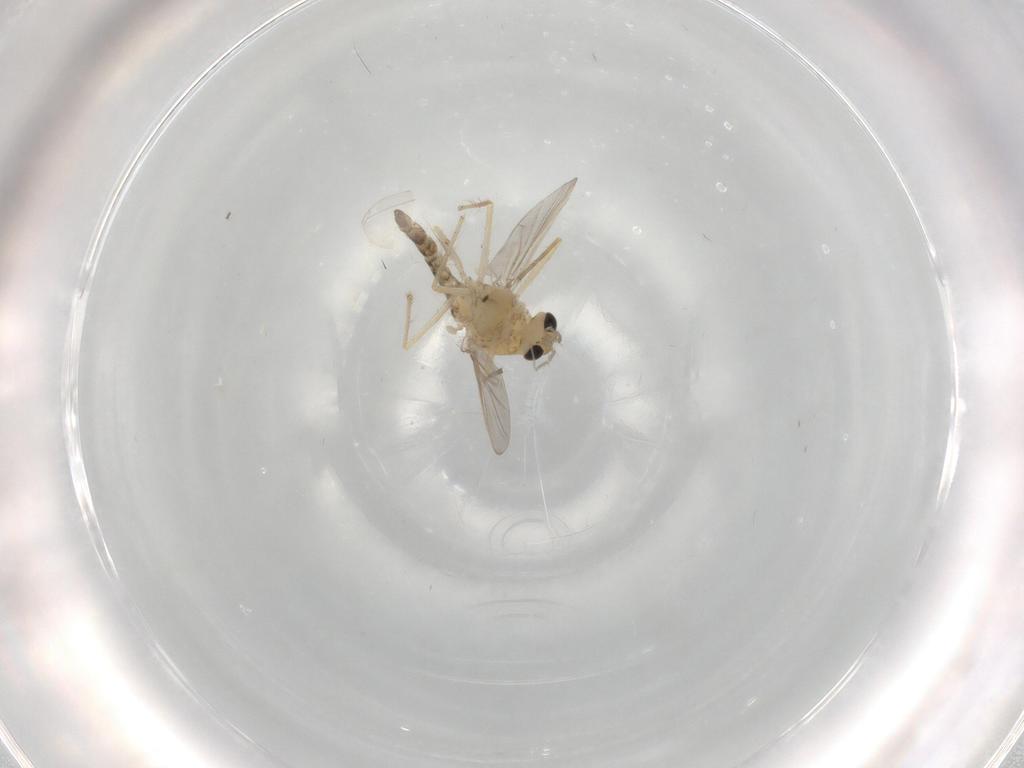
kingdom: Animalia
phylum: Arthropoda
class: Insecta
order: Diptera
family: Chironomidae
